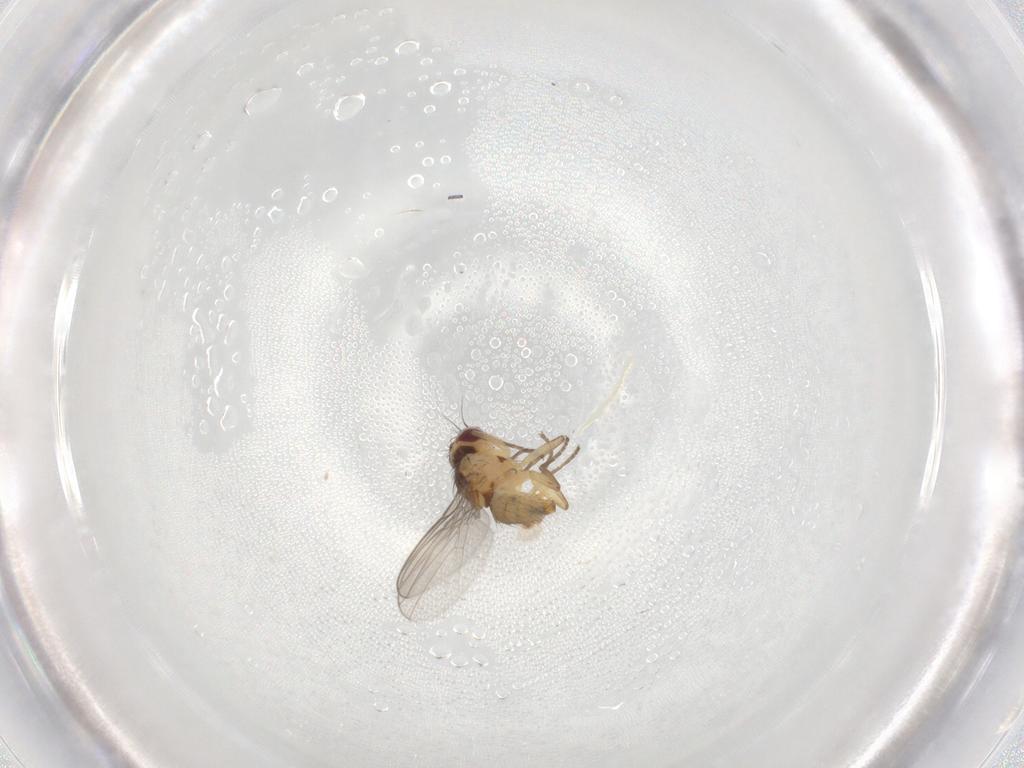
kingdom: Animalia
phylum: Arthropoda
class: Insecta
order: Diptera
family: Agromyzidae
